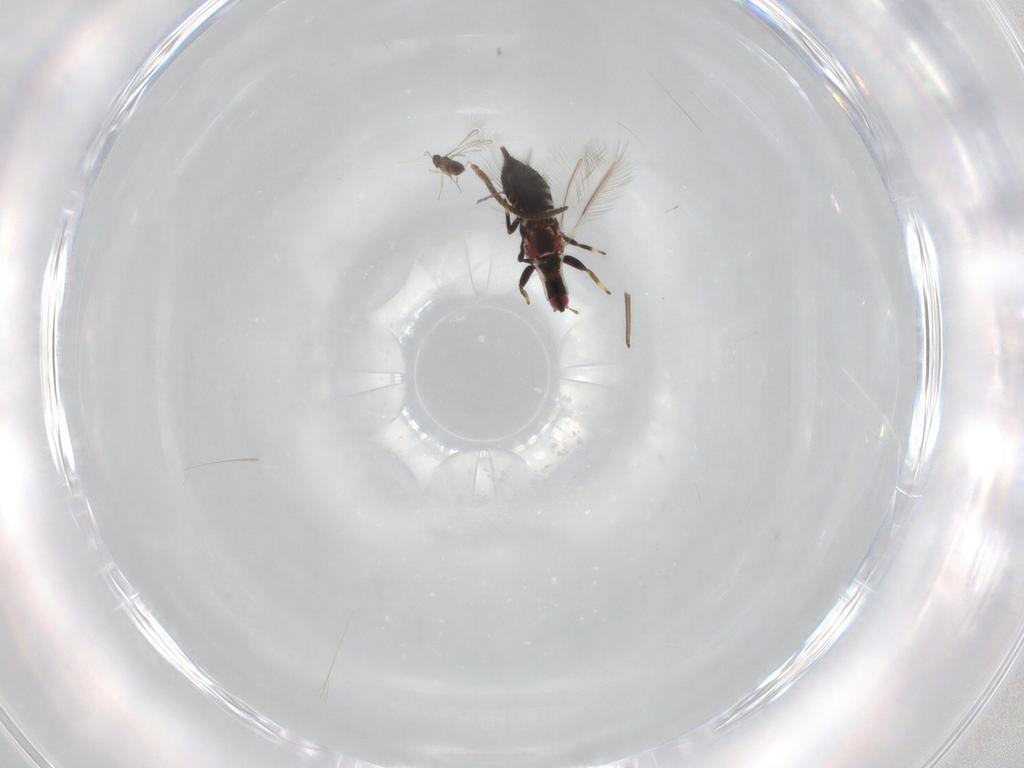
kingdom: Animalia
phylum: Arthropoda
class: Insecta
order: Thysanoptera
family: Phlaeothripidae
